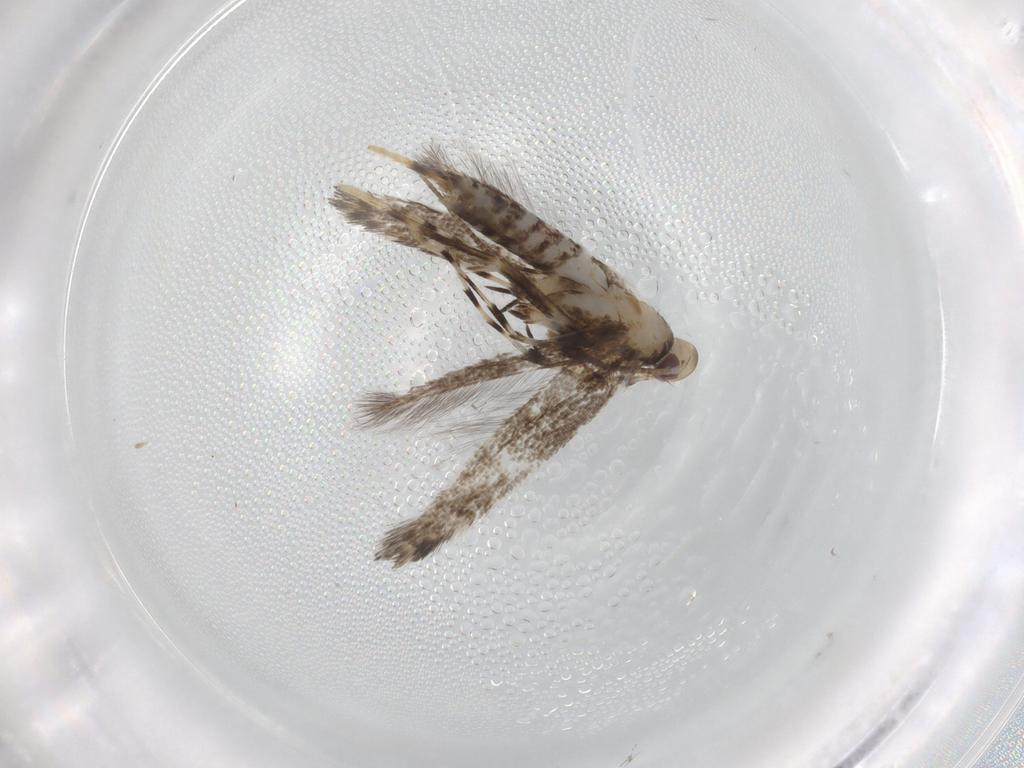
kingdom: Animalia
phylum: Arthropoda
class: Insecta
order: Lepidoptera
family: Gracillariidae
